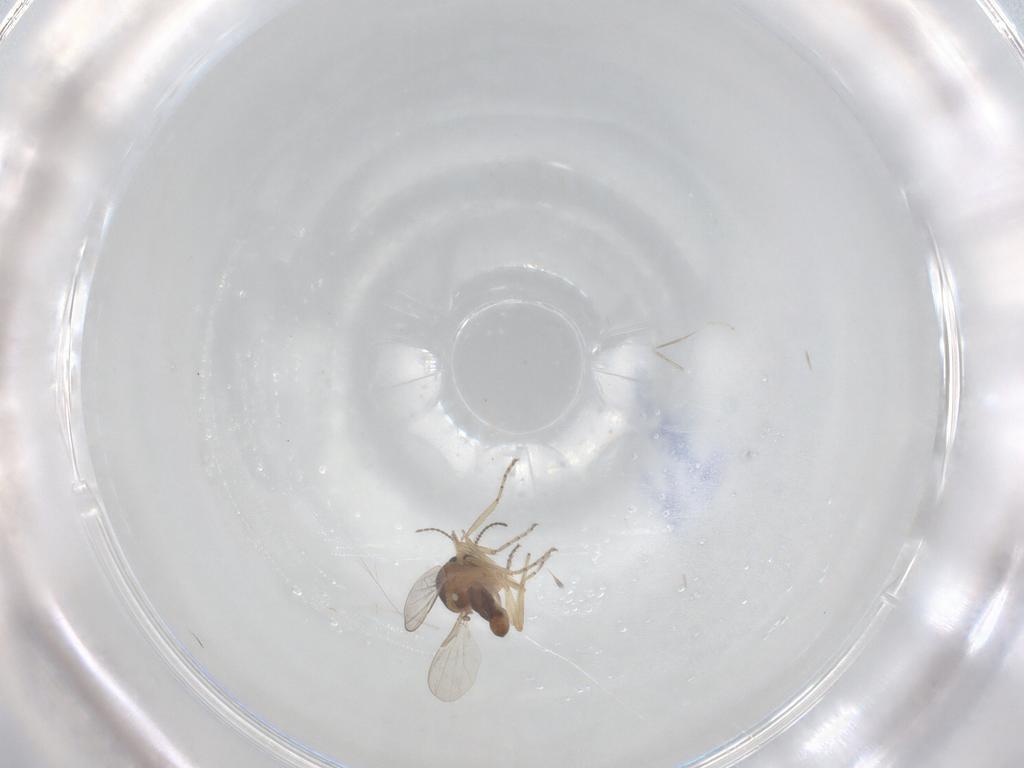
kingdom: Animalia
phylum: Arthropoda
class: Insecta
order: Diptera
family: Ceratopogonidae
